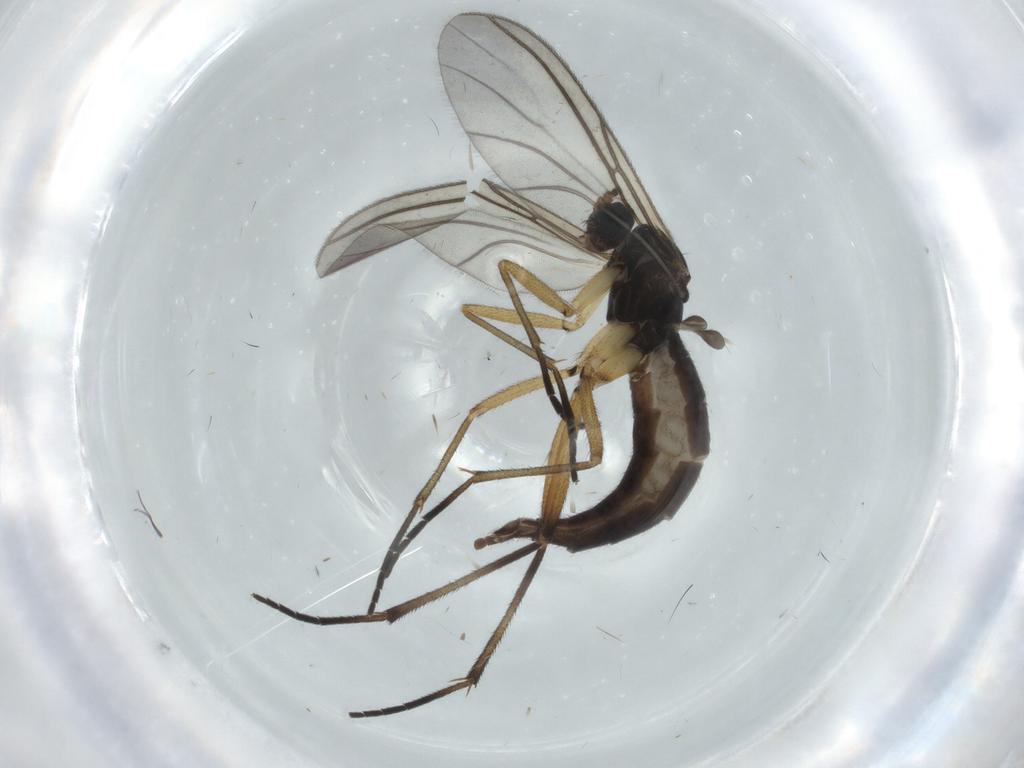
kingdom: Animalia
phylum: Arthropoda
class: Insecta
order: Diptera
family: Sciaridae
